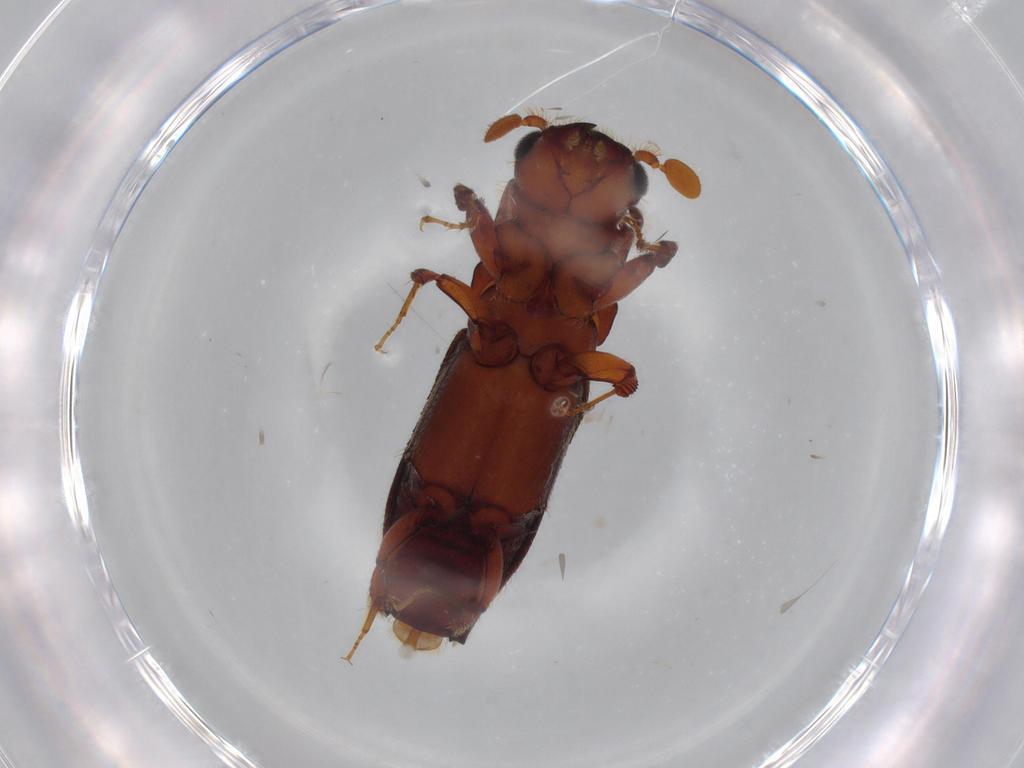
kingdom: Animalia
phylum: Arthropoda
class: Insecta
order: Coleoptera
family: Curculionidae
